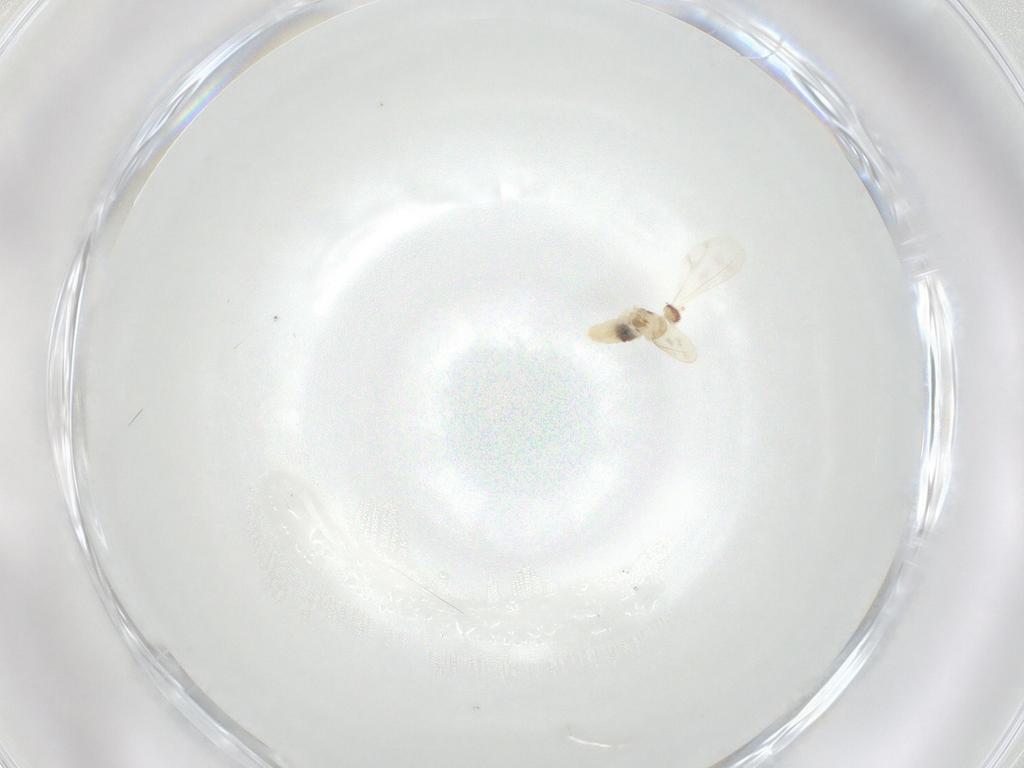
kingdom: Animalia
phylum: Arthropoda
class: Insecta
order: Diptera
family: Cecidomyiidae
